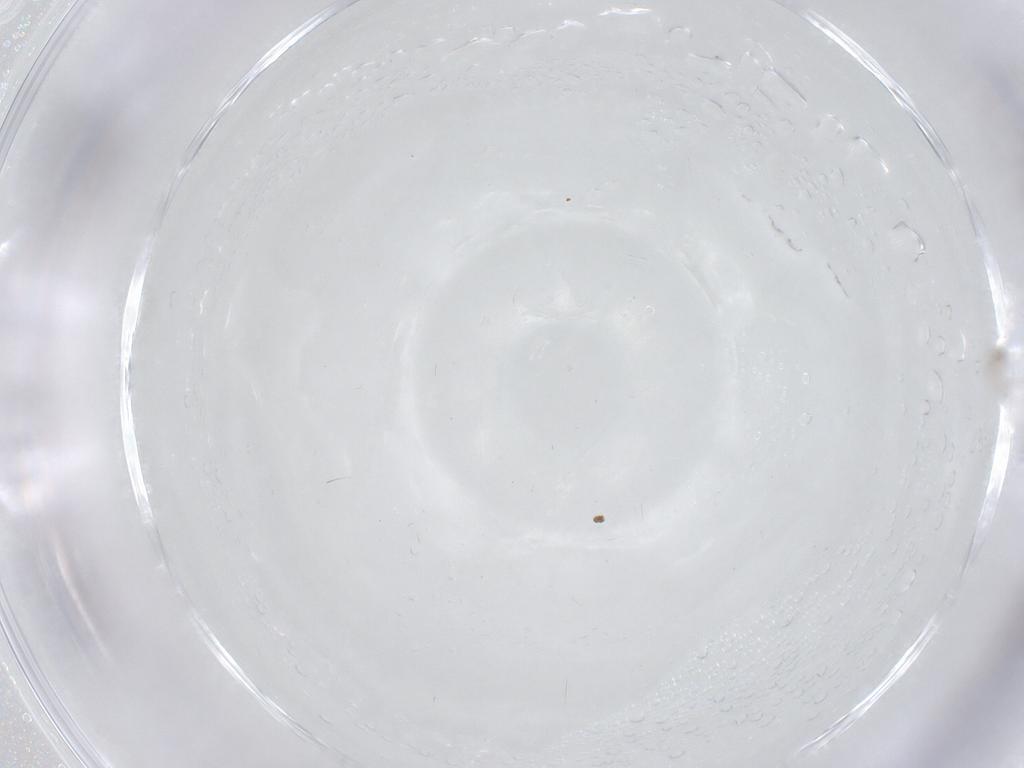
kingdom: Animalia
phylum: Arthropoda
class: Insecta
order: Diptera
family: Cecidomyiidae
